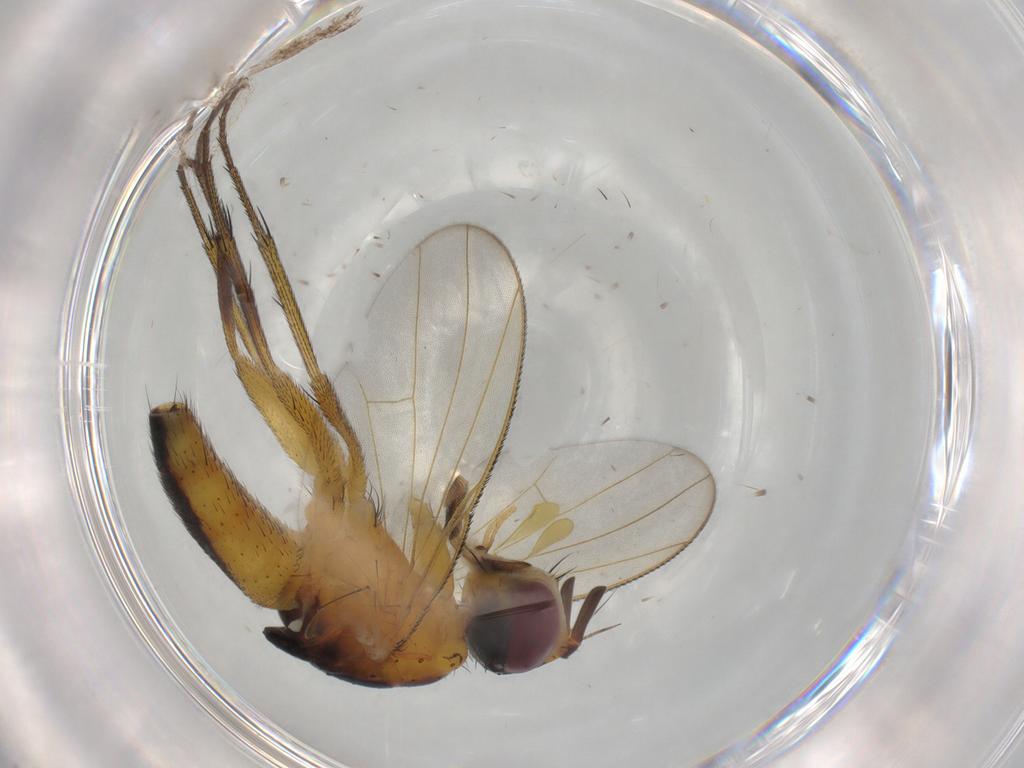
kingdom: Animalia
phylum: Arthropoda
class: Insecta
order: Diptera
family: Muscidae
